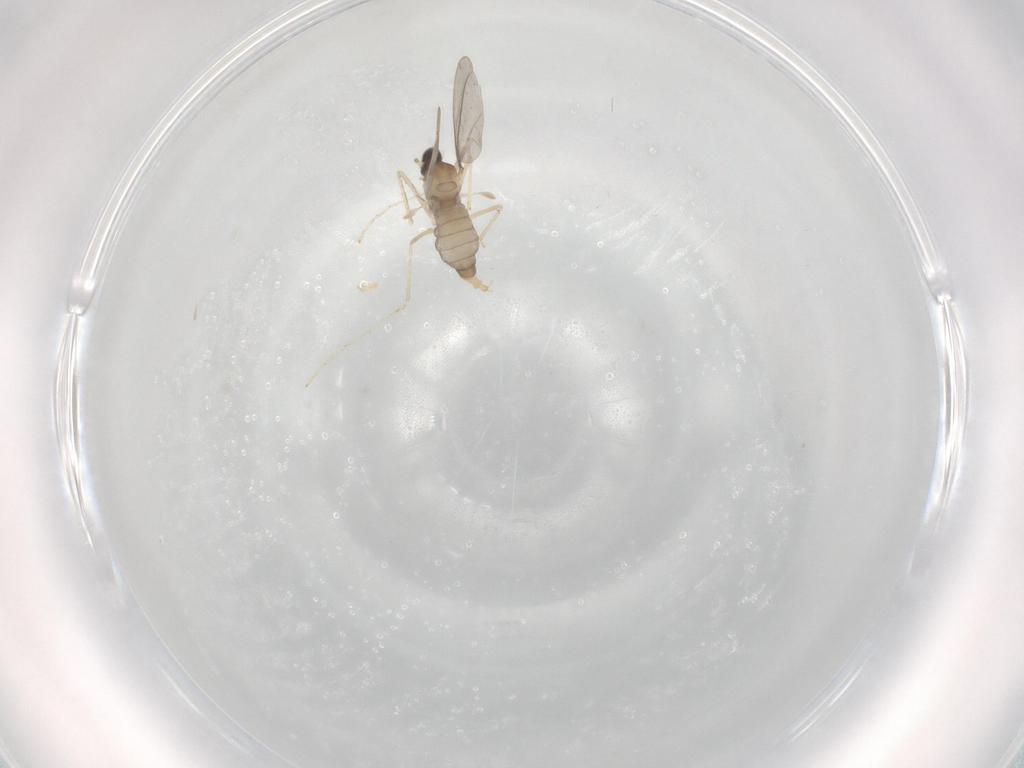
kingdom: Animalia
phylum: Arthropoda
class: Insecta
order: Diptera
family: Cecidomyiidae
